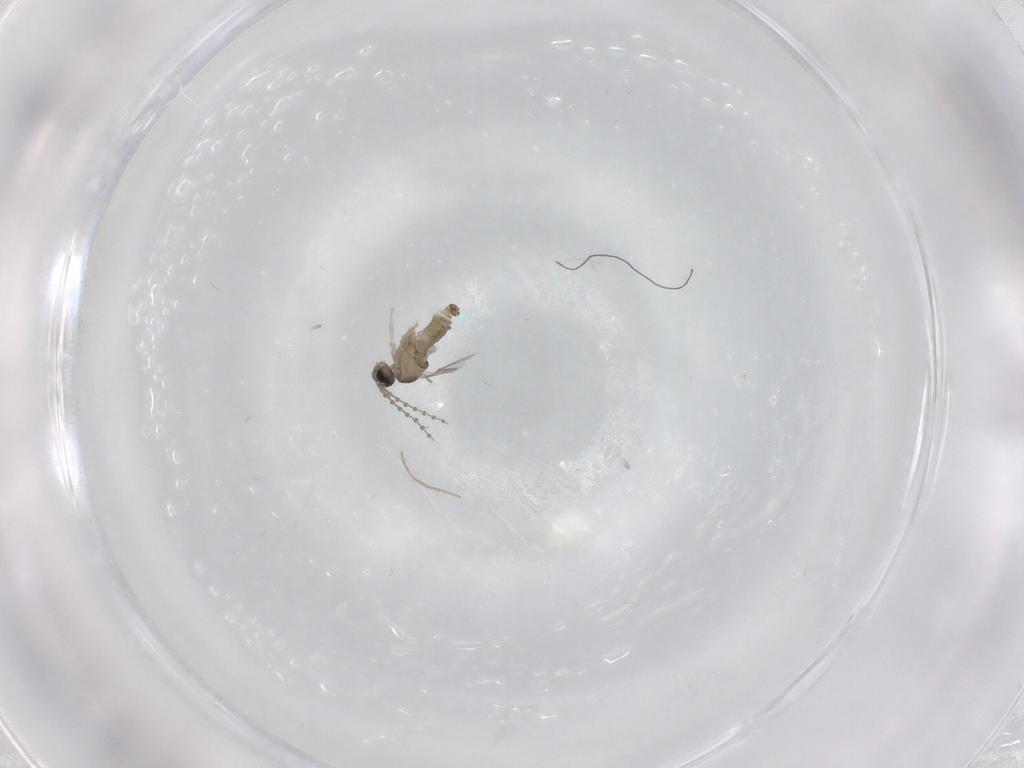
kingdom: Animalia
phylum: Arthropoda
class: Insecta
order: Diptera
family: Cecidomyiidae
